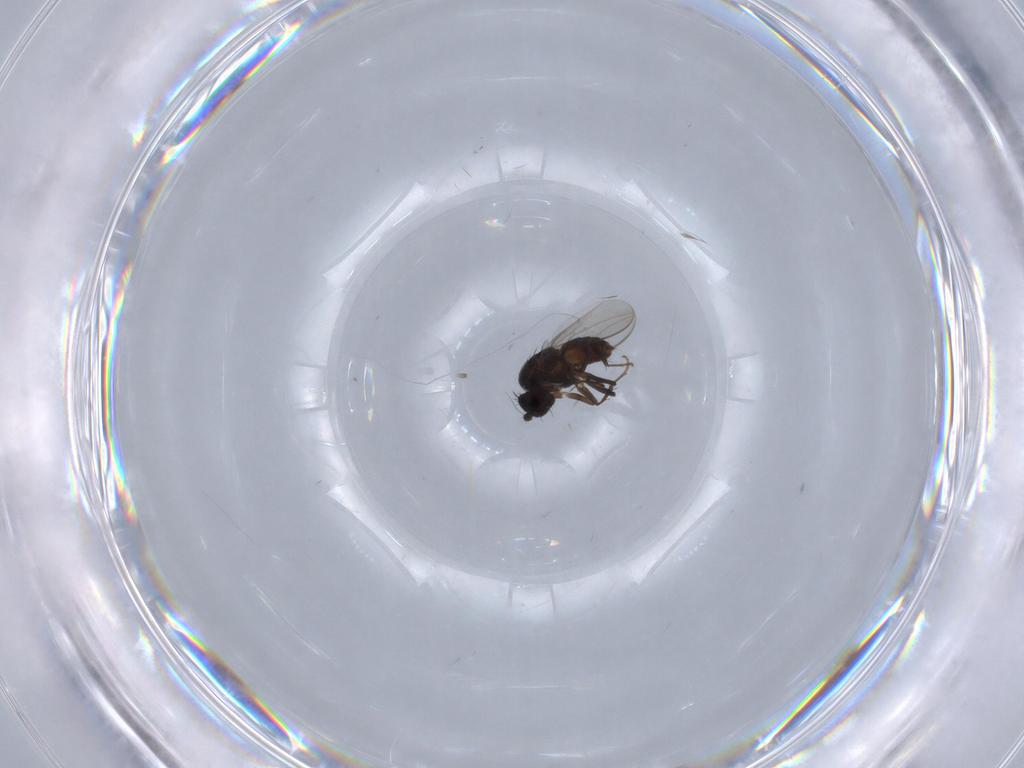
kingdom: Animalia
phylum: Arthropoda
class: Insecta
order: Diptera
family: Sphaeroceridae
